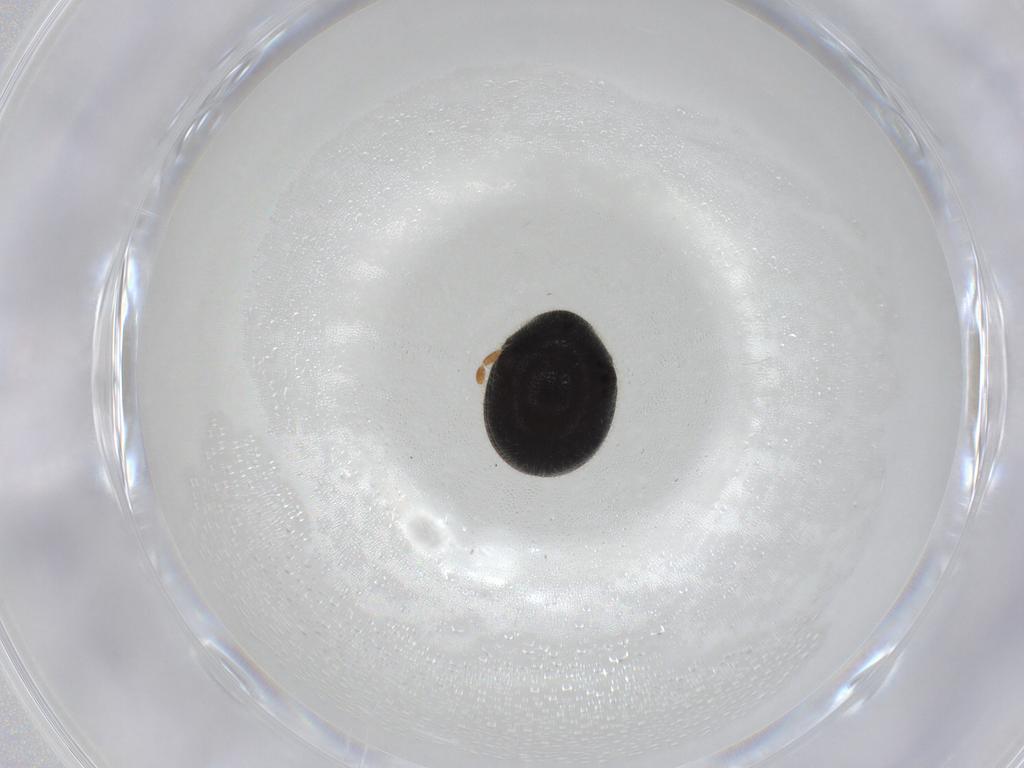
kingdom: Animalia
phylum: Arthropoda
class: Insecta
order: Coleoptera
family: Ptinidae
